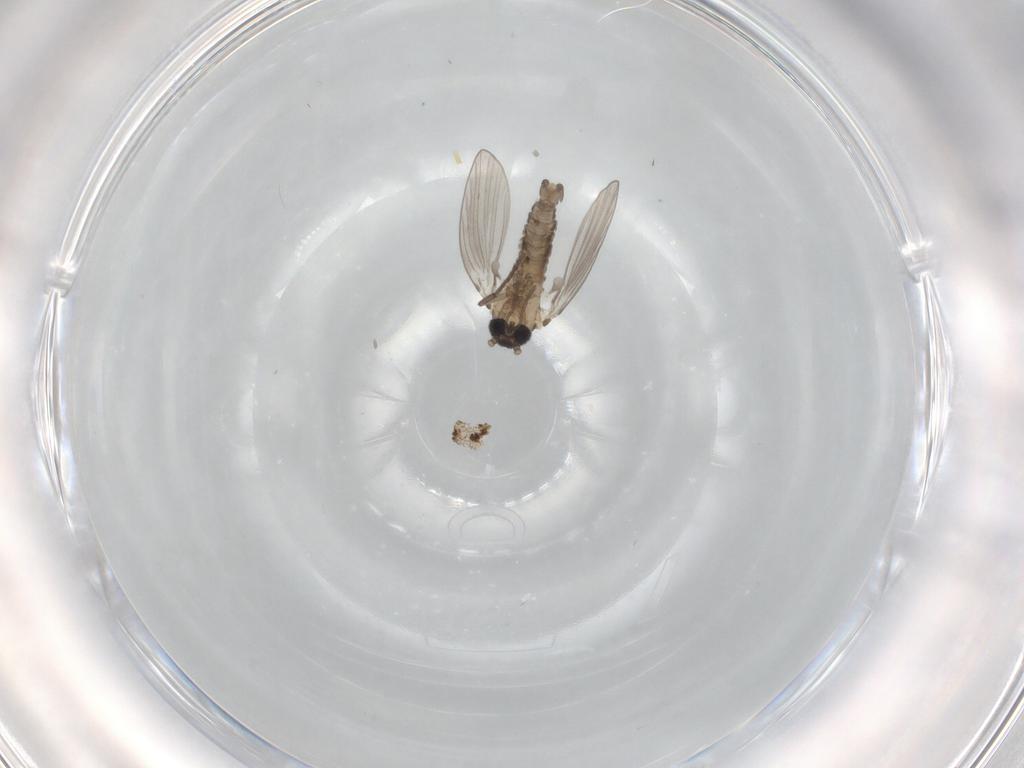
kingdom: Animalia
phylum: Arthropoda
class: Insecta
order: Diptera
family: Drosophilidae
